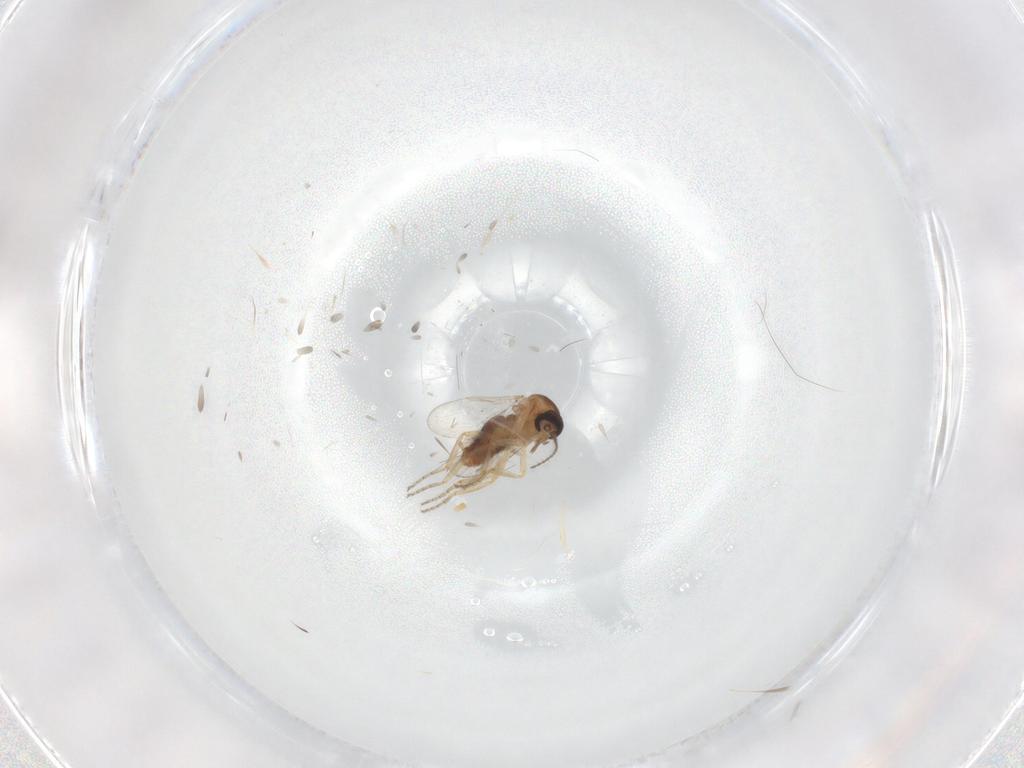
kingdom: Animalia
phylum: Arthropoda
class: Insecta
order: Diptera
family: Ceratopogonidae
